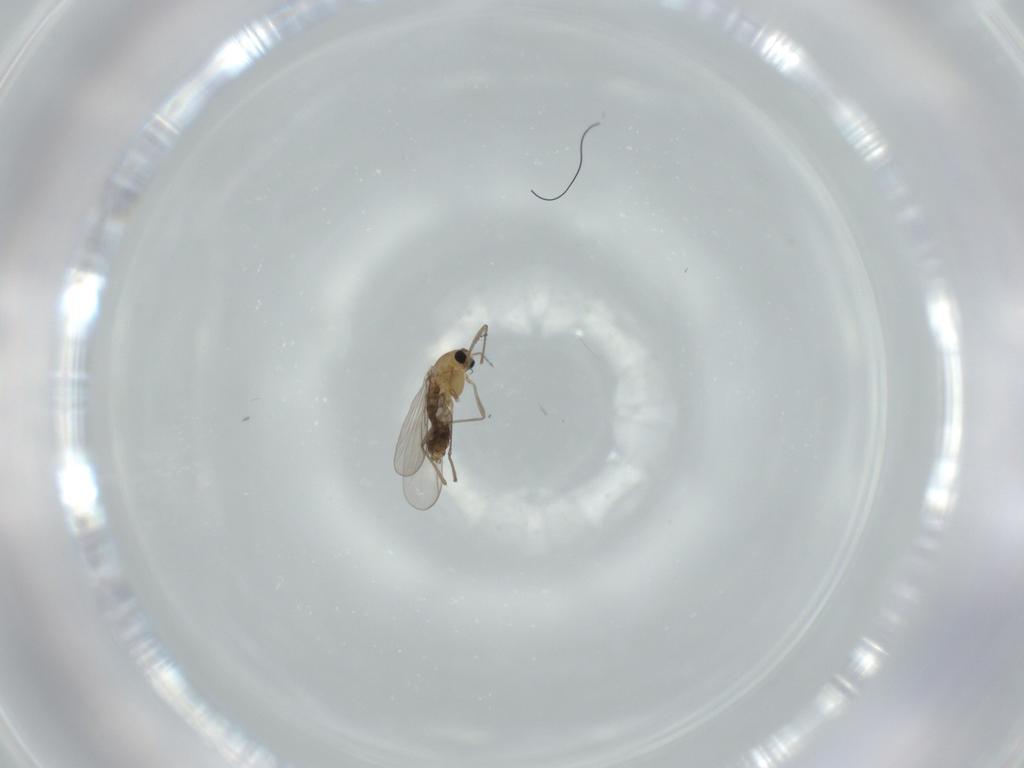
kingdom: Animalia
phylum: Arthropoda
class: Insecta
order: Diptera
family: Chironomidae
